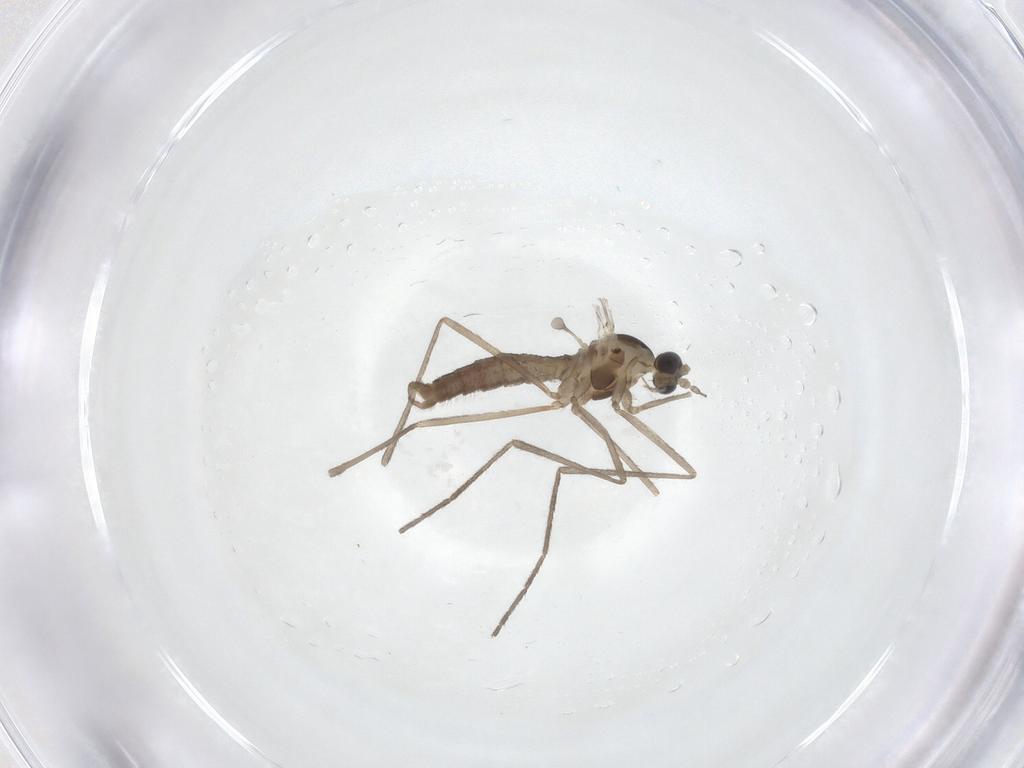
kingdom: Animalia
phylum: Arthropoda
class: Insecta
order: Diptera
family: Cecidomyiidae
